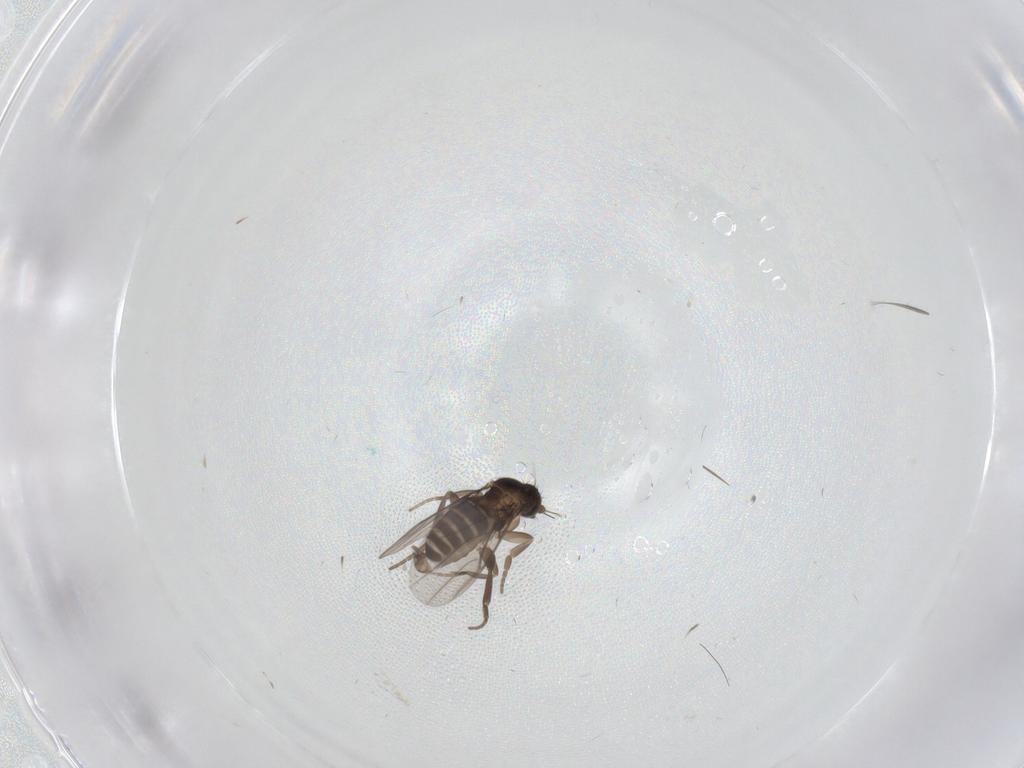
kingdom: Animalia
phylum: Arthropoda
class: Insecta
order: Diptera
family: Phoridae
